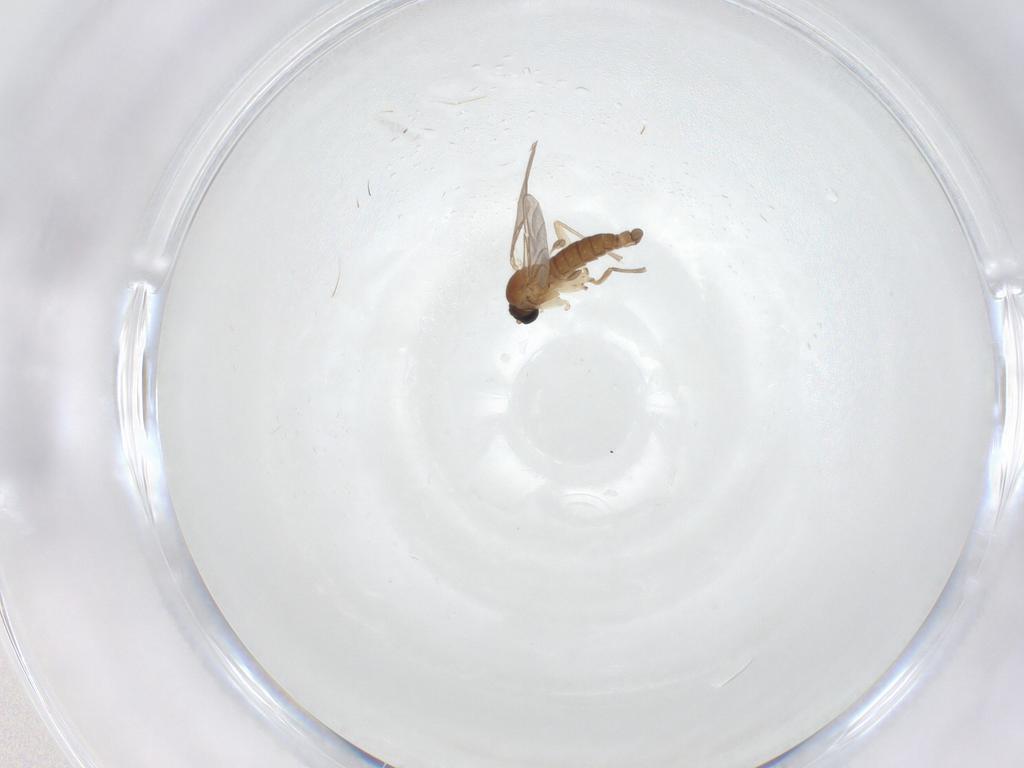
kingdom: Animalia
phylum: Arthropoda
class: Insecta
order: Diptera
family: Sciaridae
